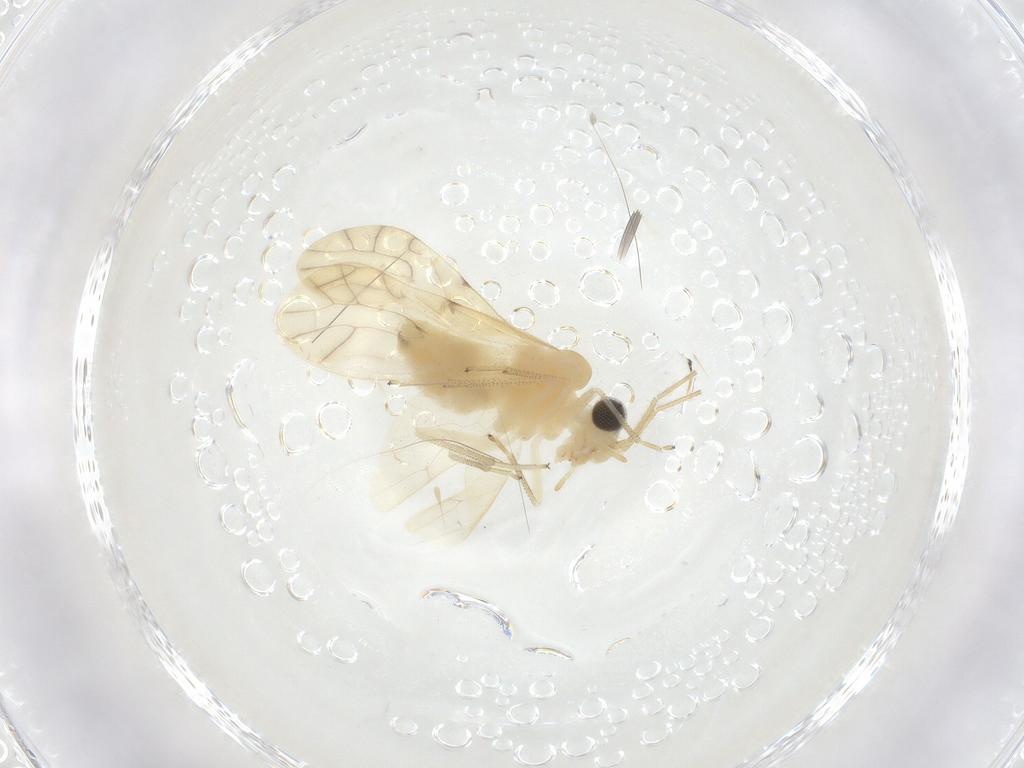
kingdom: Animalia
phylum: Arthropoda
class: Insecta
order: Psocodea
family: Caeciliusidae
